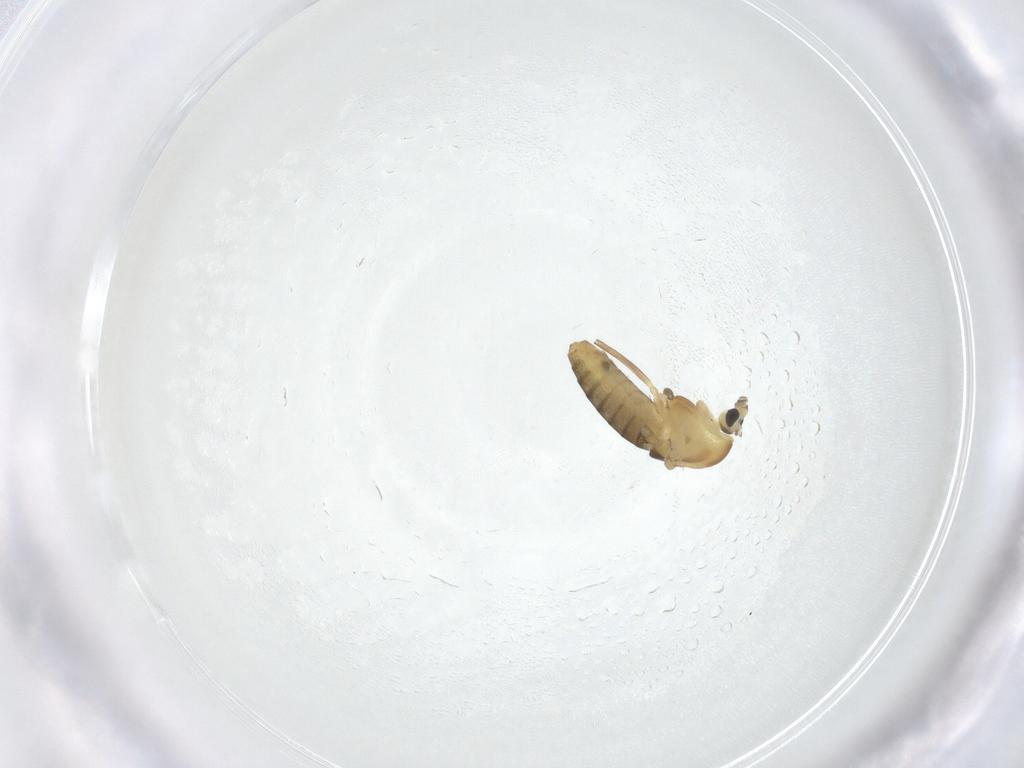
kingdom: Animalia
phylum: Arthropoda
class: Insecta
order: Diptera
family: Chironomidae
